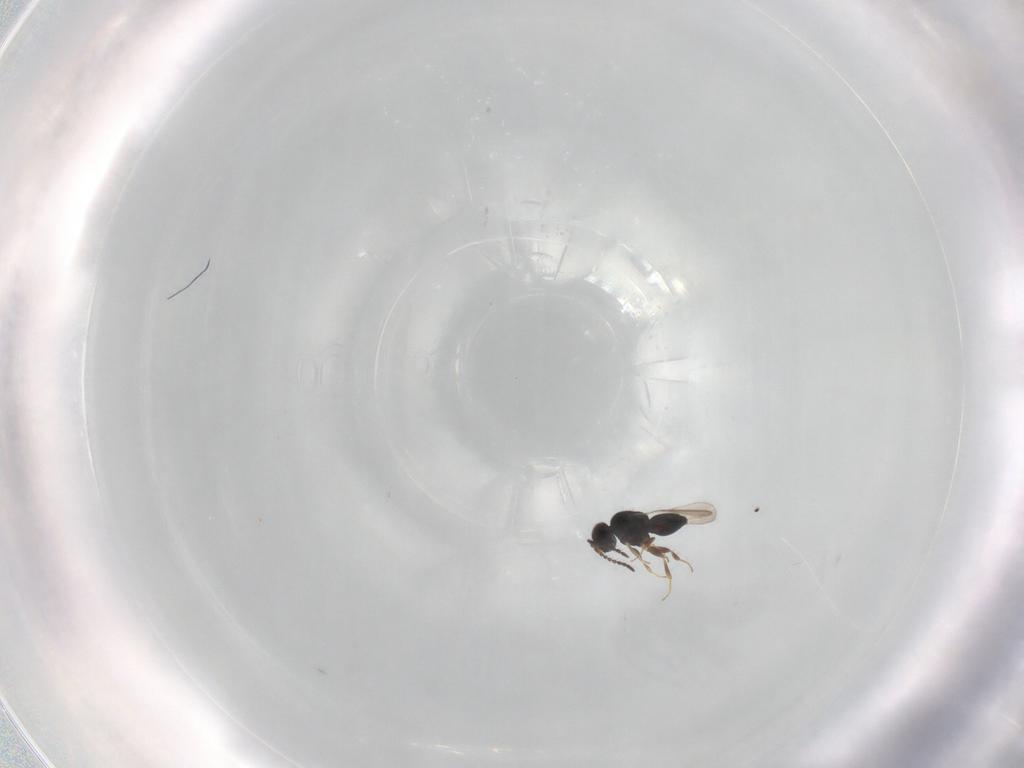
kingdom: Animalia
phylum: Arthropoda
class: Insecta
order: Hymenoptera
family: Ceraphronidae
